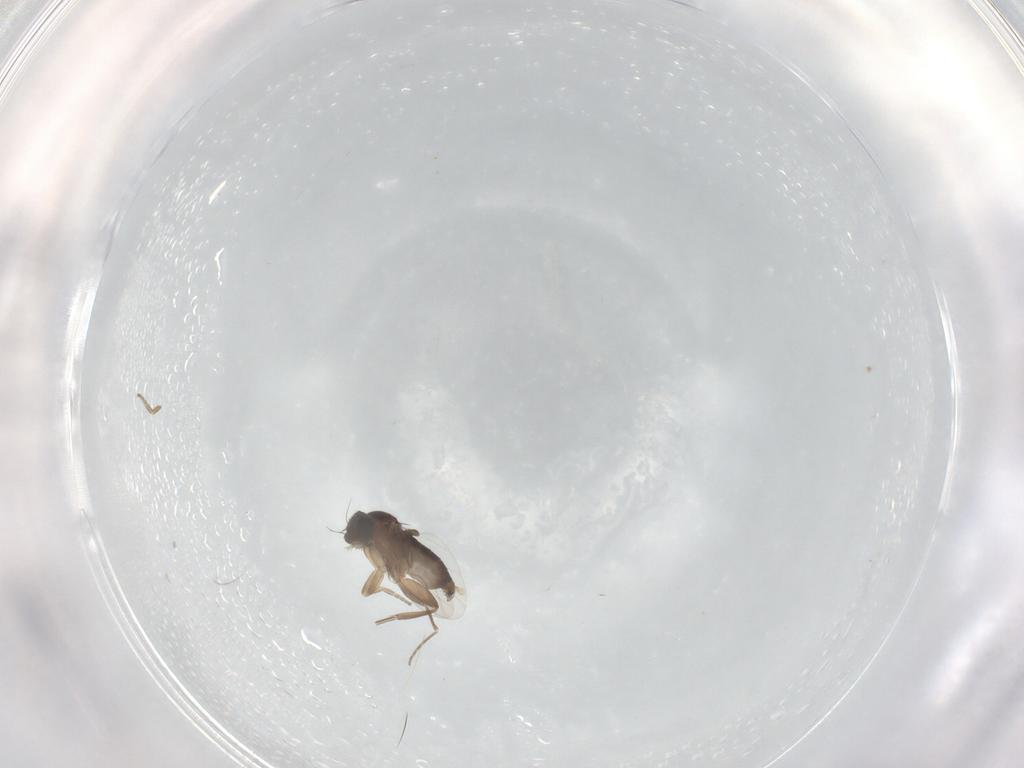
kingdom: Animalia
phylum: Arthropoda
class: Insecta
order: Diptera
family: Phoridae
